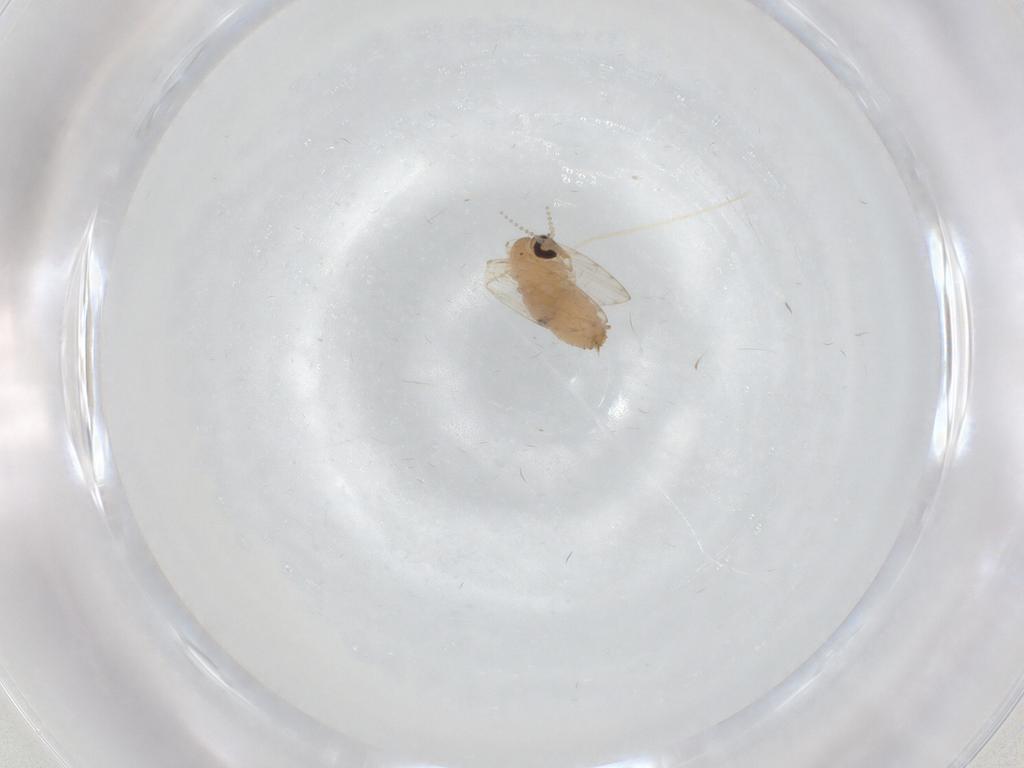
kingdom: Animalia
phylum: Arthropoda
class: Insecta
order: Diptera
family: Psychodidae
